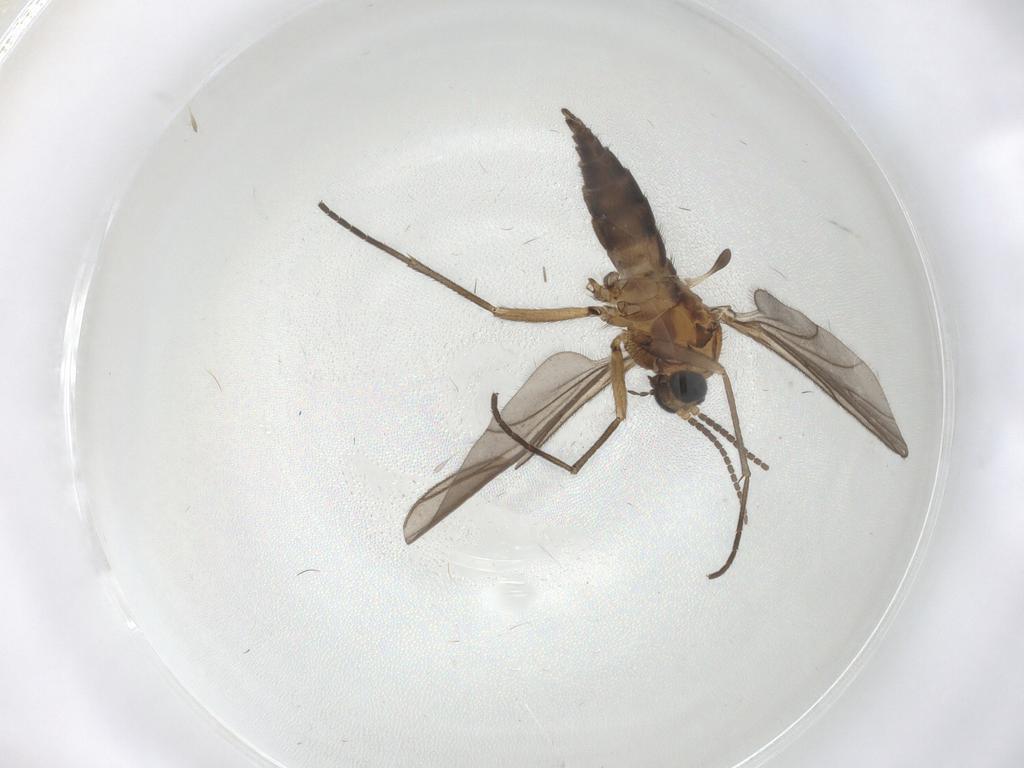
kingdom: Animalia
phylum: Arthropoda
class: Insecta
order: Diptera
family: Sciaridae
